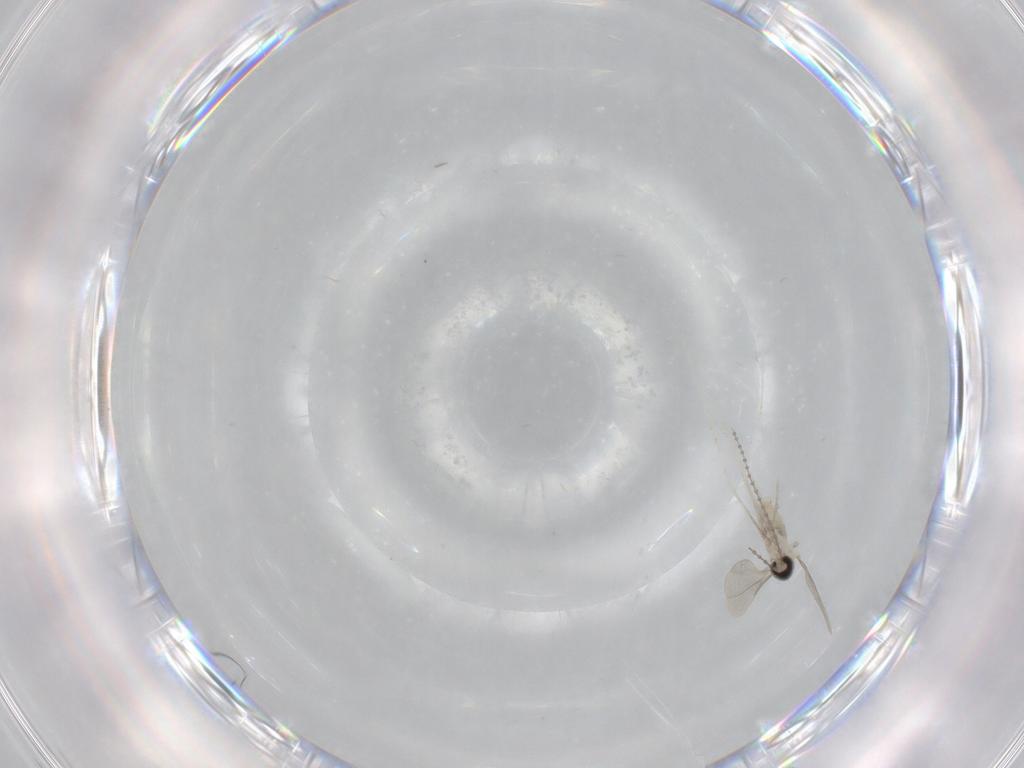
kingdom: Animalia
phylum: Arthropoda
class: Insecta
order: Diptera
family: Cecidomyiidae
